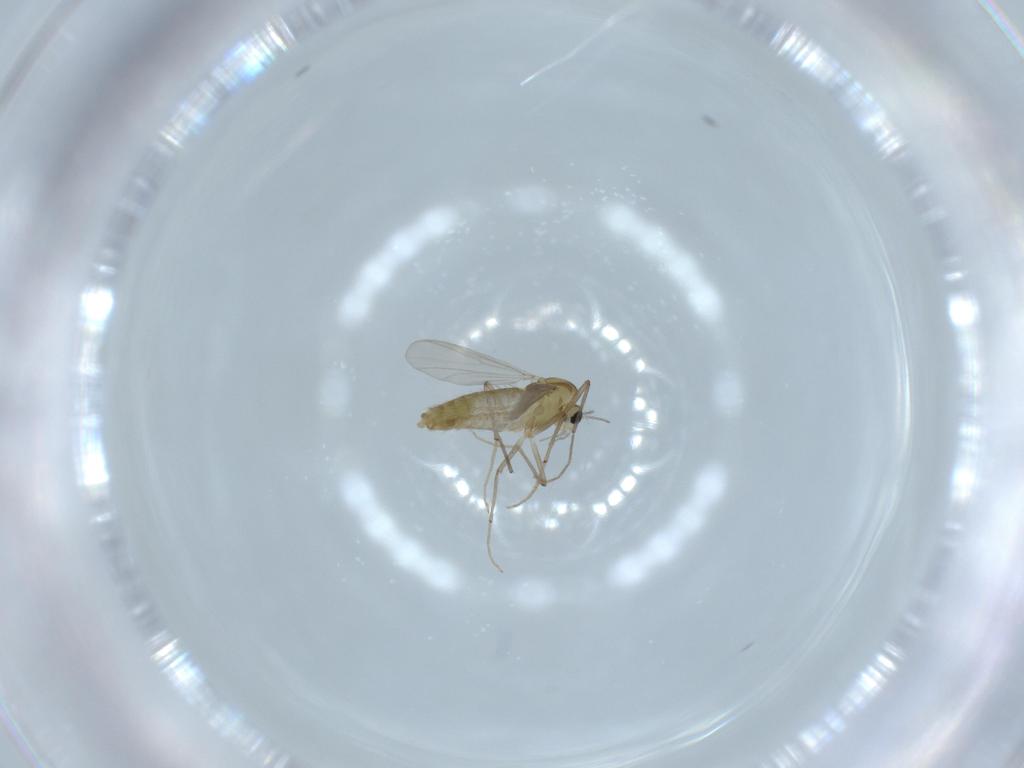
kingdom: Animalia
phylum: Arthropoda
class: Insecta
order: Diptera
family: Chironomidae
